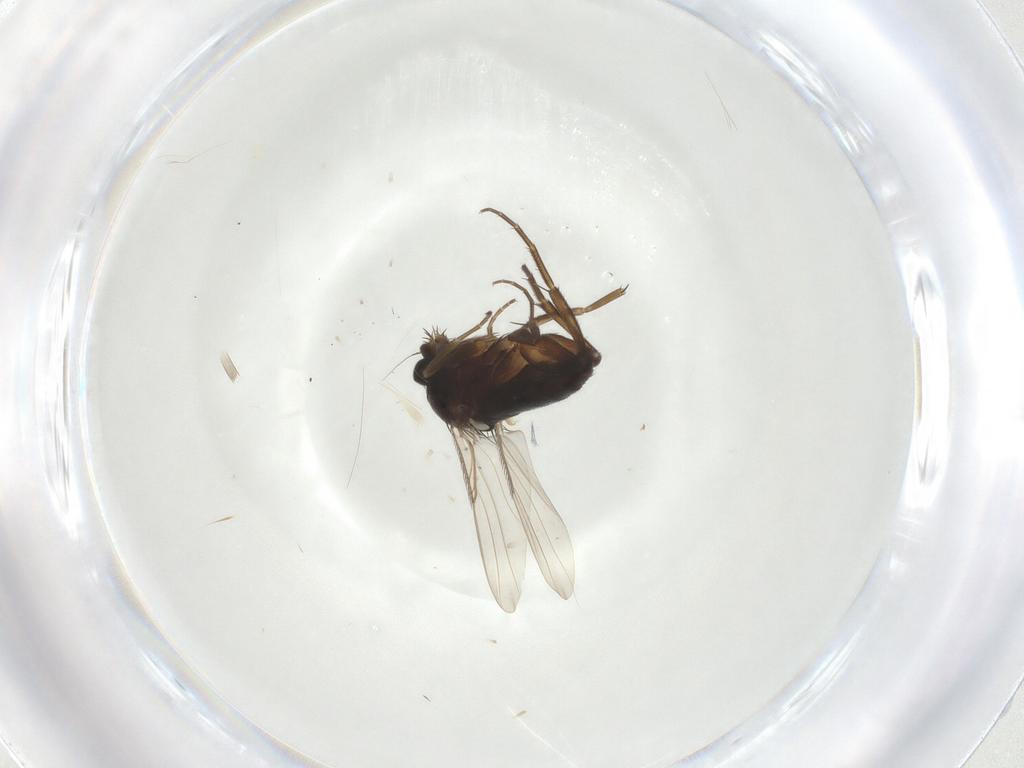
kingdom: Animalia
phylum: Arthropoda
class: Insecta
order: Diptera
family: Phoridae
